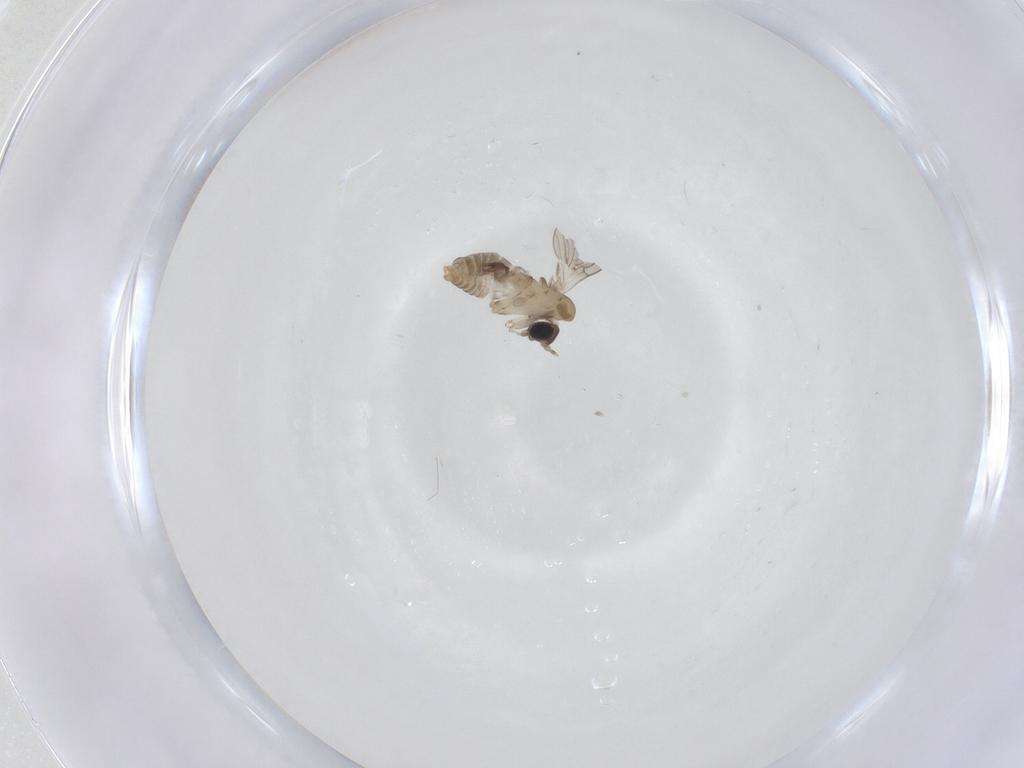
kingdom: Animalia
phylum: Arthropoda
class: Insecta
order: Diptera
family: Psychodidae
